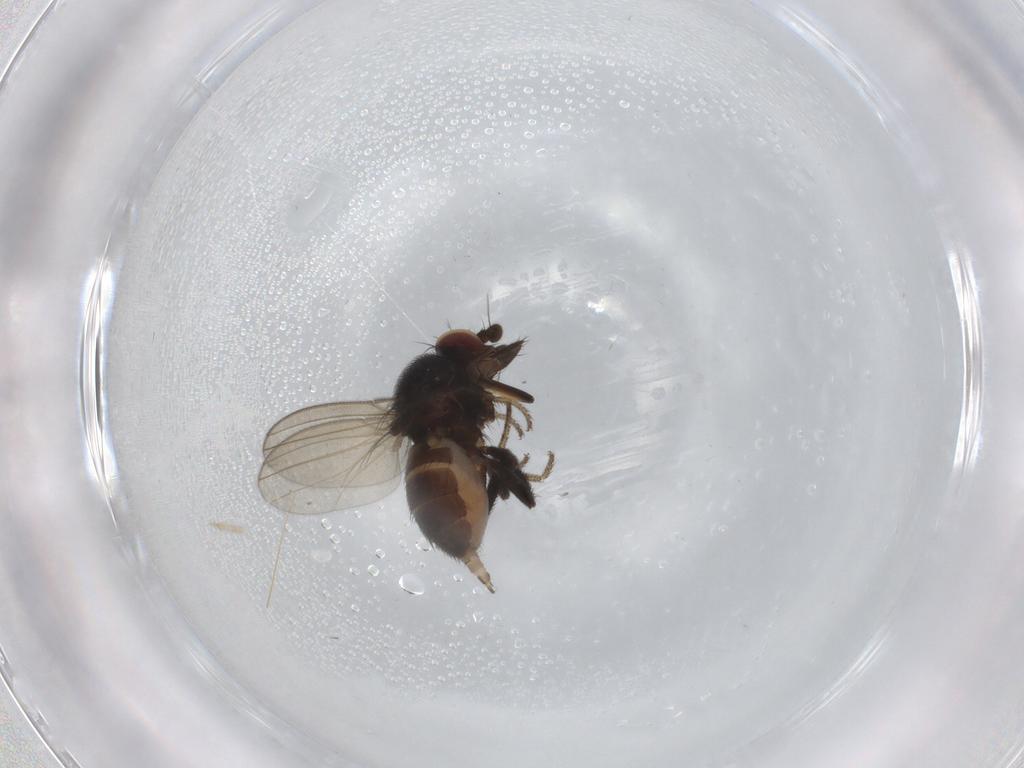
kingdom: Animalia
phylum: Arthropoda
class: Insecta
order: Diptera
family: Milichiidae
